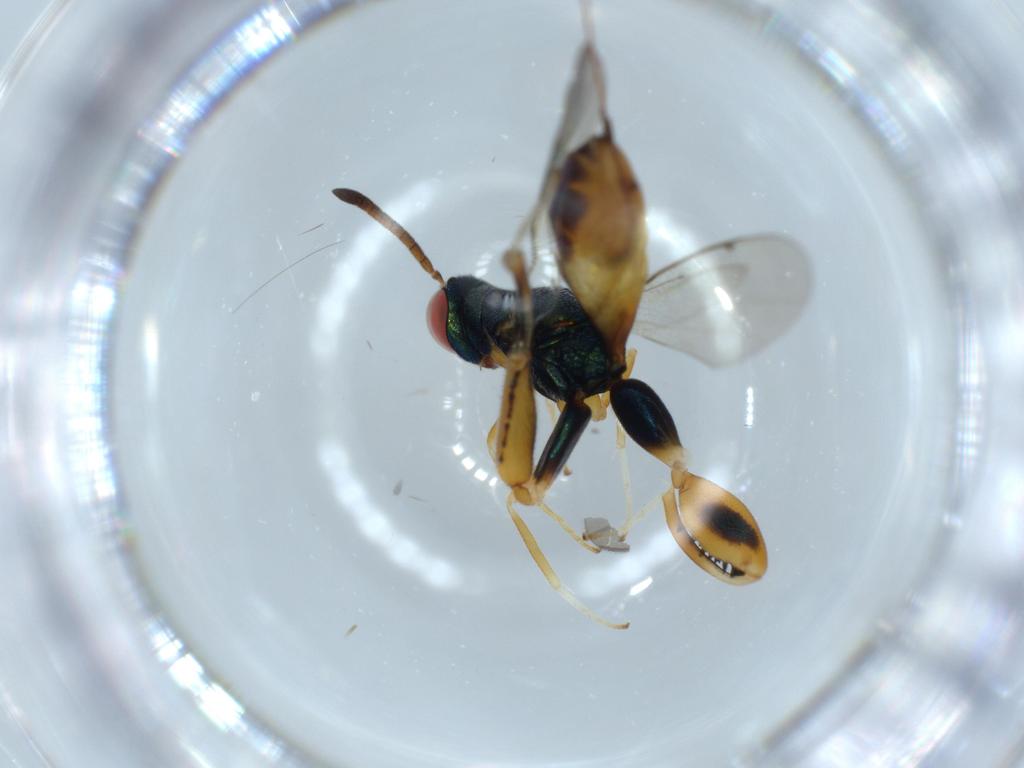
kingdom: Animalia
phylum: Arthropoda
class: Insecta
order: Hymenoptera
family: Torymidae
